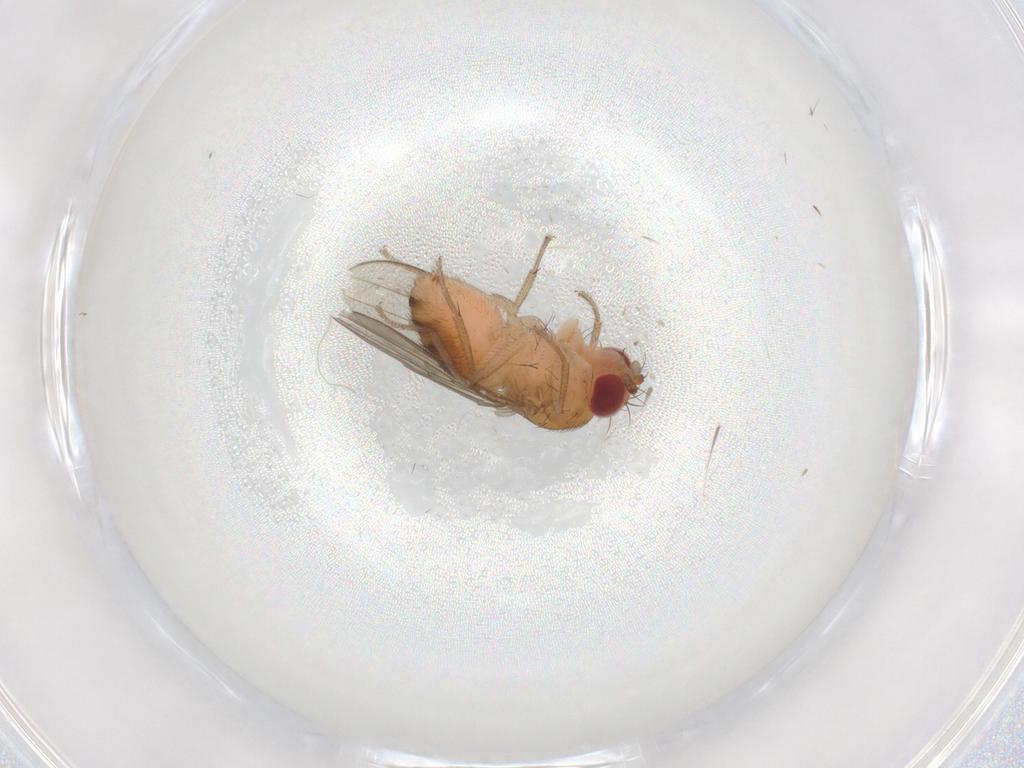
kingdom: Animalia
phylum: Arthropoda
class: Insecta
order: Diptera
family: Drosophilidae
